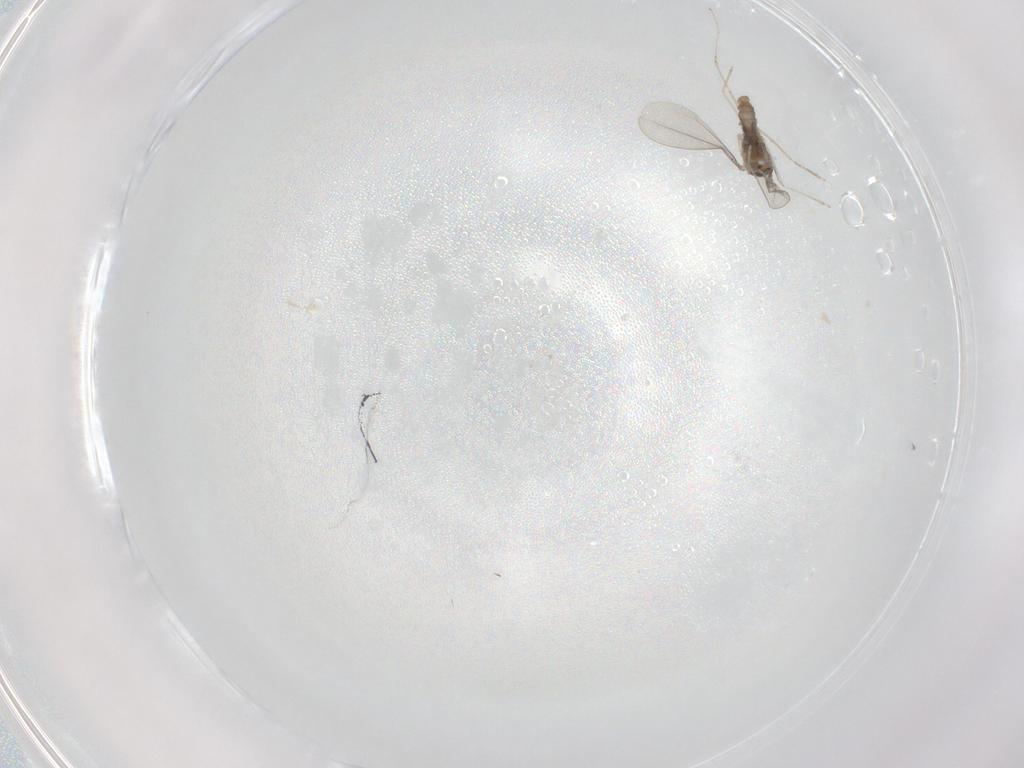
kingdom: Animalia
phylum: Arthropoda
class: Insecta
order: Diptera
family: Cecidomyiidae
